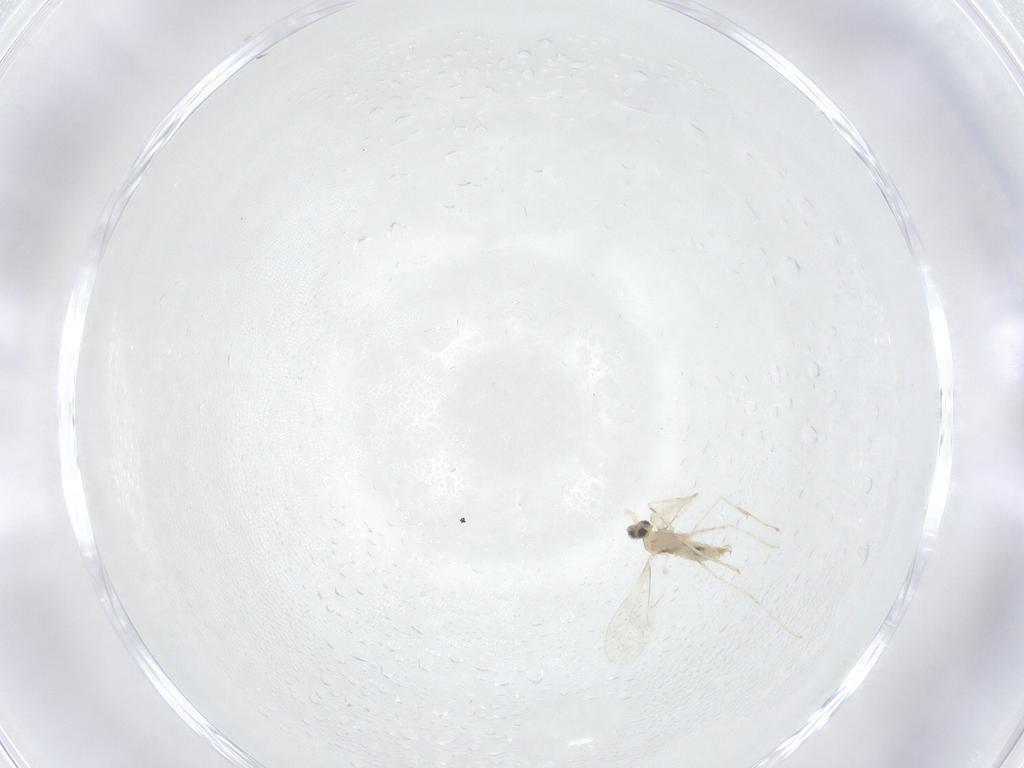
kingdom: Animalia
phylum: Arthropoda
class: Insecta
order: Diptera
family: Cecidomyiidae
